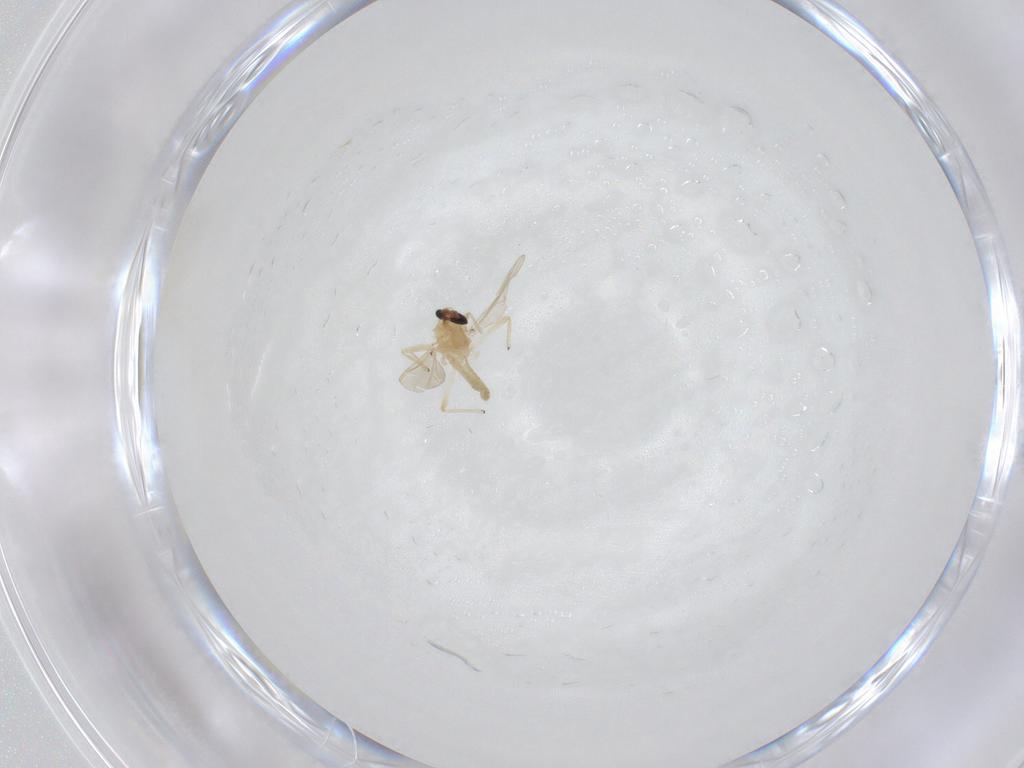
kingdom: Animalia
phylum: Arthropoda
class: Insecta
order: Diptera
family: Chironomidae
